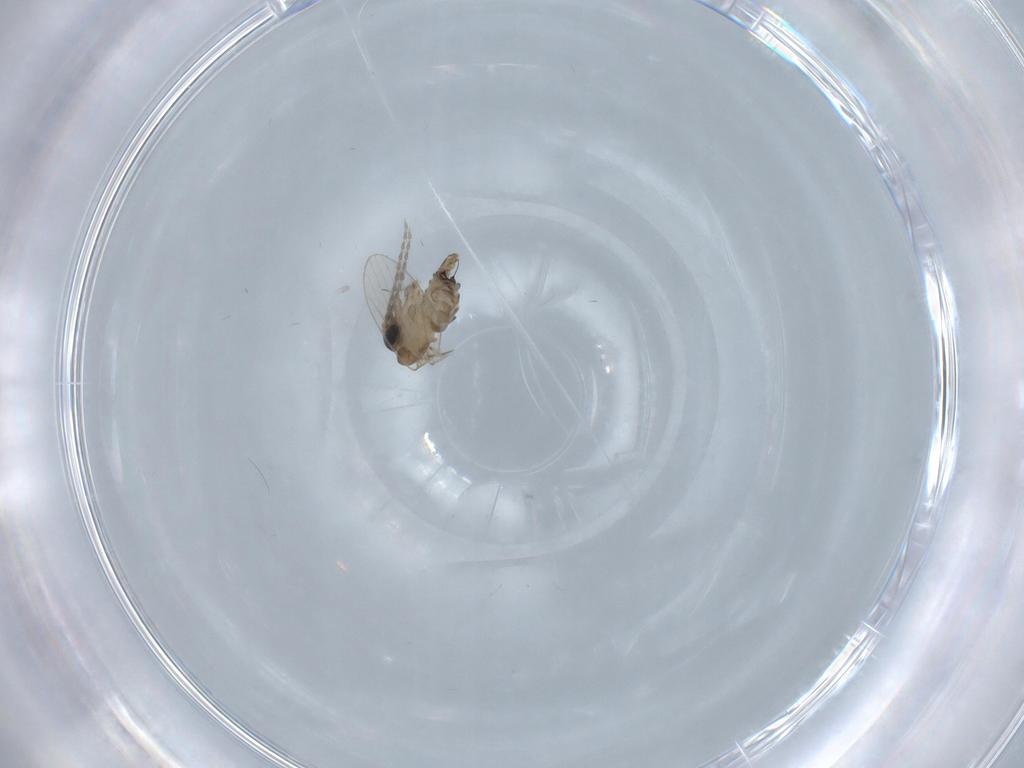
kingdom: Animalia
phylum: Arthropoda
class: Insecta
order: Diptera
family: Psychodidae
